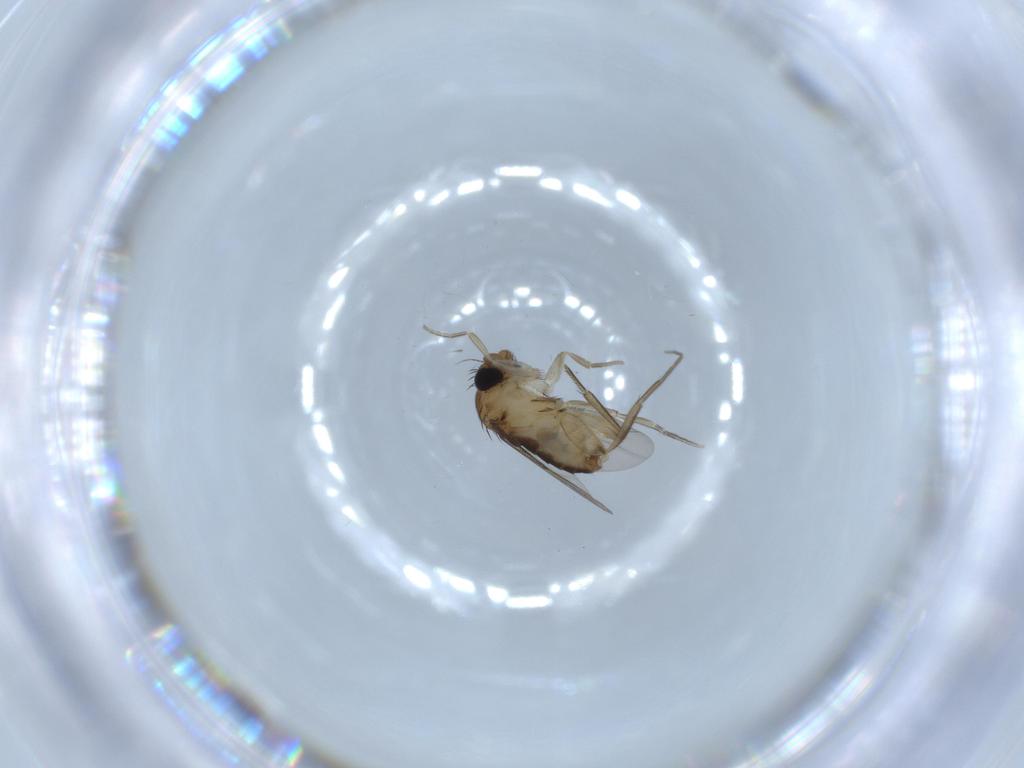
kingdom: Animalia
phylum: Arthropoda
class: Insecta
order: Diptera
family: Phoridae
